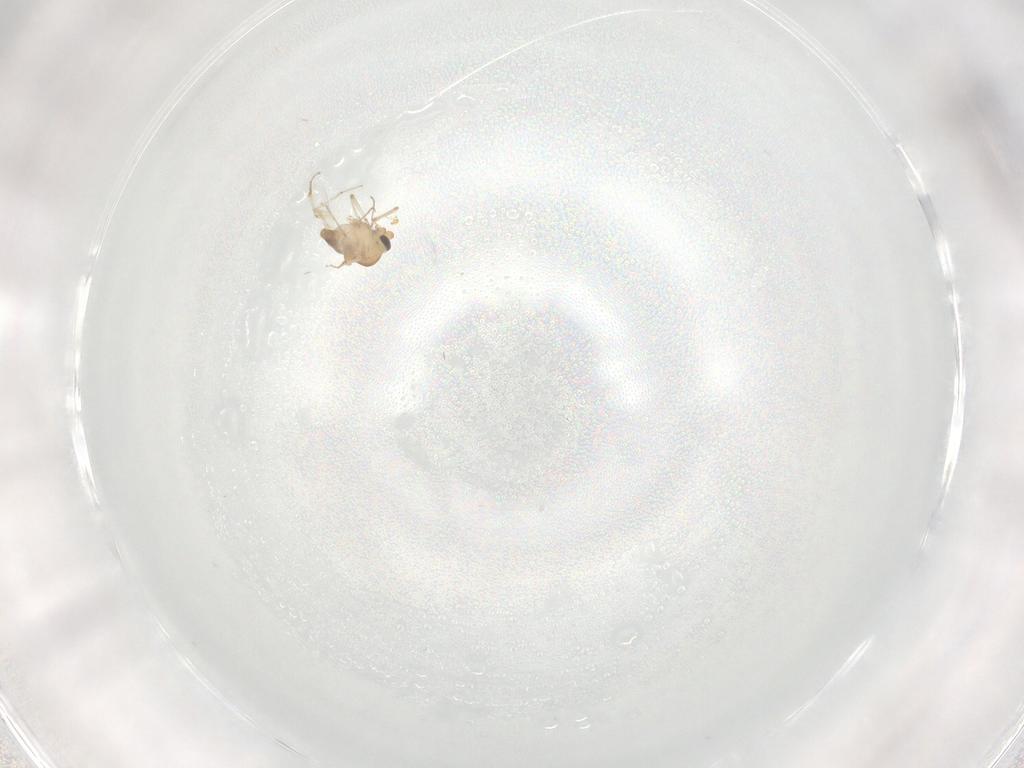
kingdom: Animalia
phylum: Arthropoda
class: Insecta
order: Diptera
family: Ceratopogonidae
